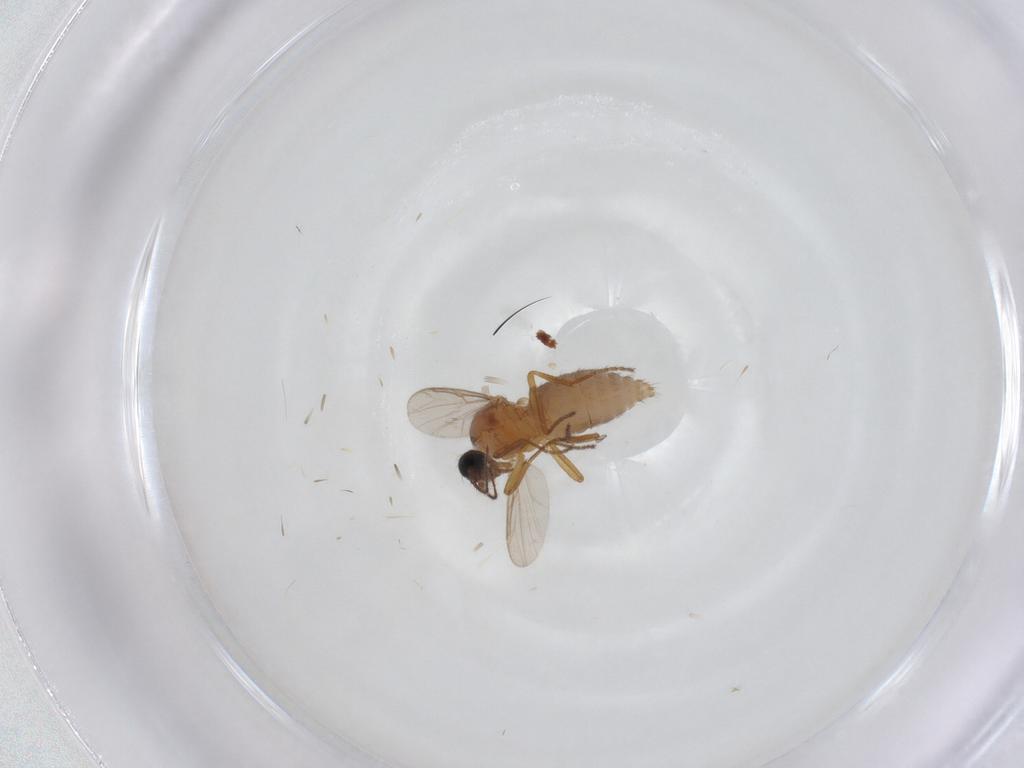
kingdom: Animalia
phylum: Arthropoda
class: Insecta
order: Diptera
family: Ceratopogonidae
